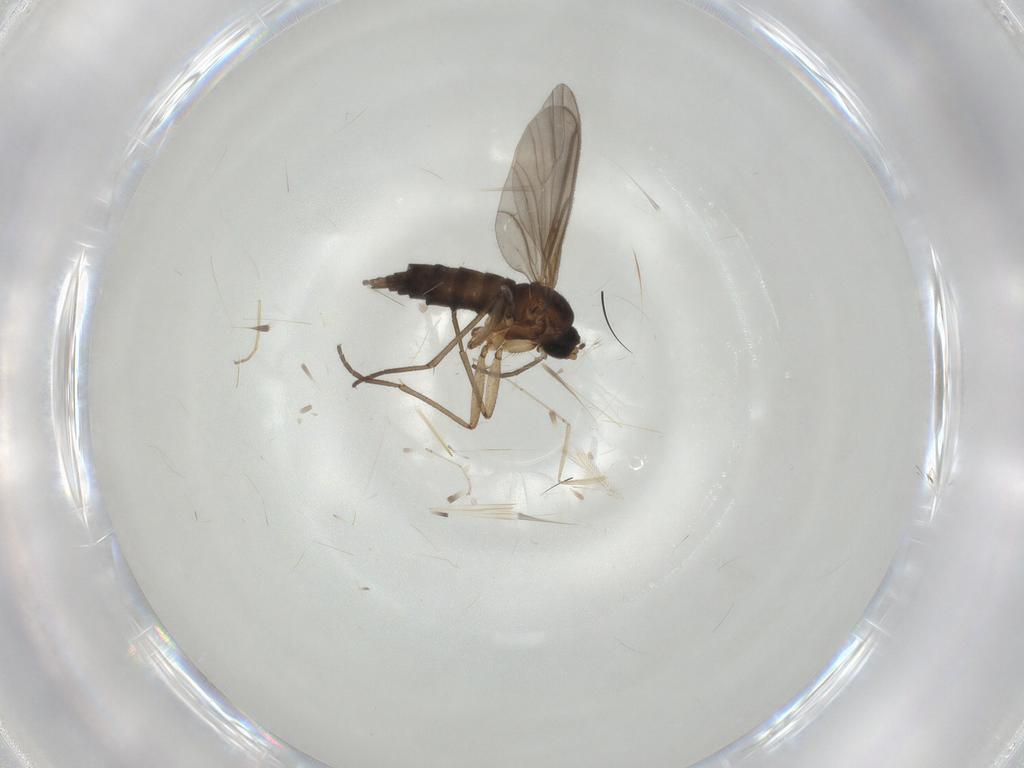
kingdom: Animalia
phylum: Arthropoda
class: Insecta
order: Diptera
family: Sciaridae
